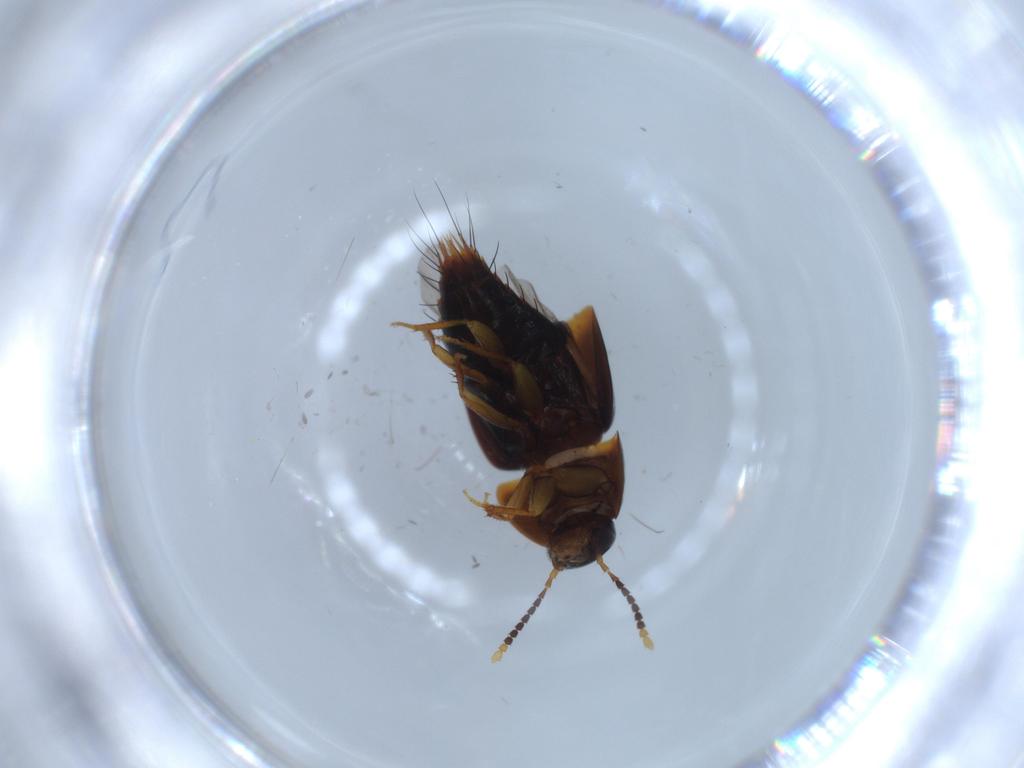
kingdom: Animalia
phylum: Arthropoda
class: Insecta
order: Coleoptera
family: Staphylinidae
